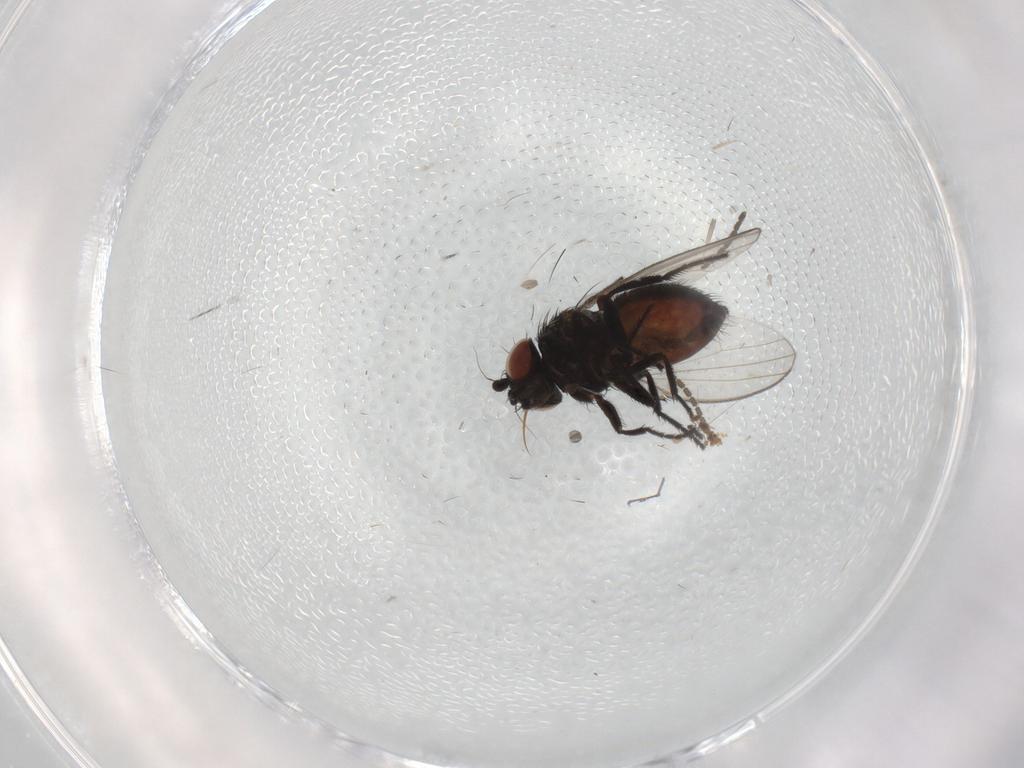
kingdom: Animalia
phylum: Arthropoda
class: Insecta
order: Diptera
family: Sciaridae
